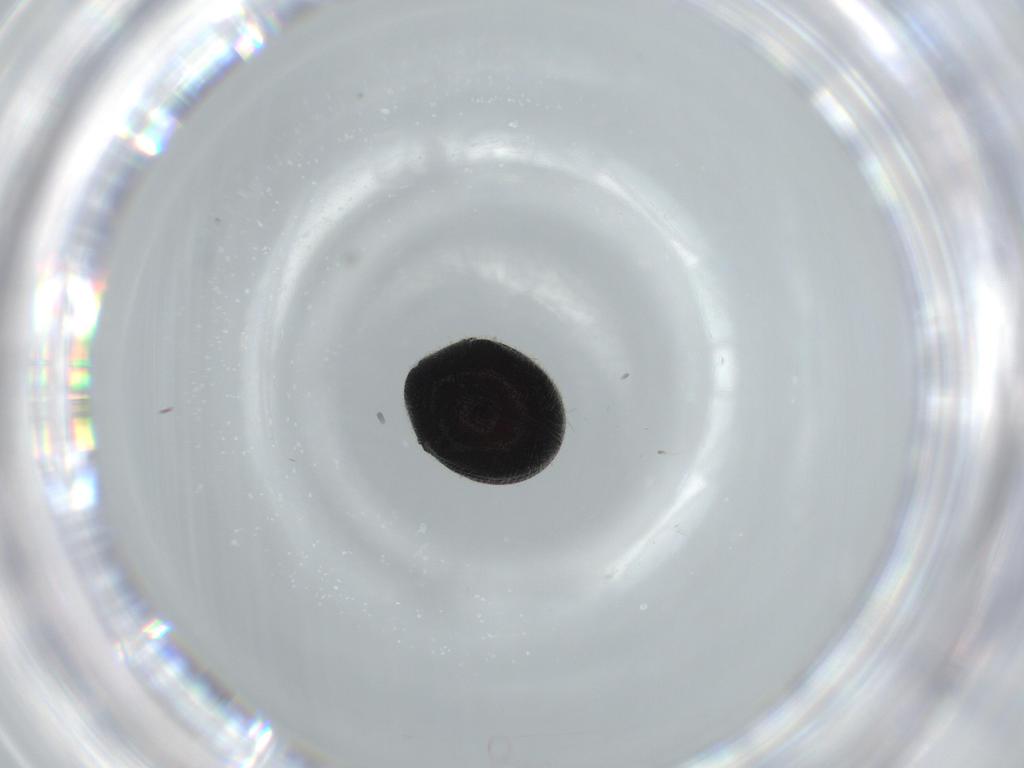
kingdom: Animalia
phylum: Arthropoda
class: Insecta
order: Coleoptera
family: Ptinidae
